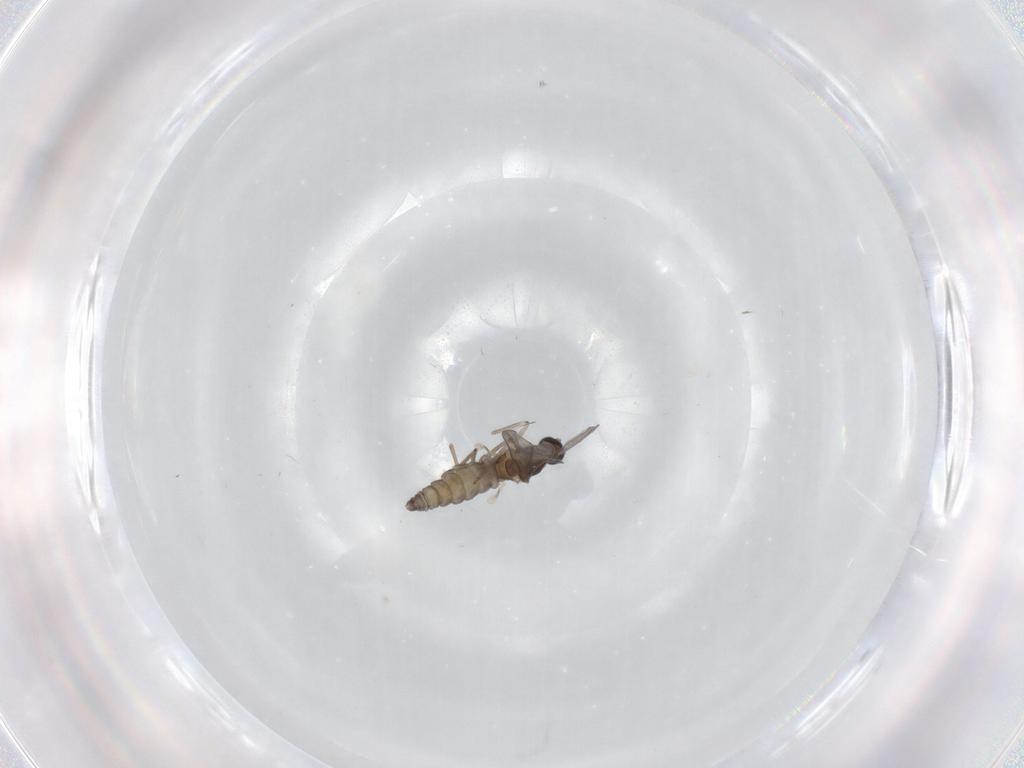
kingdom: Animalia
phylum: Arthropoda
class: Insecta
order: Diptera
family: Cecidomyiidae
